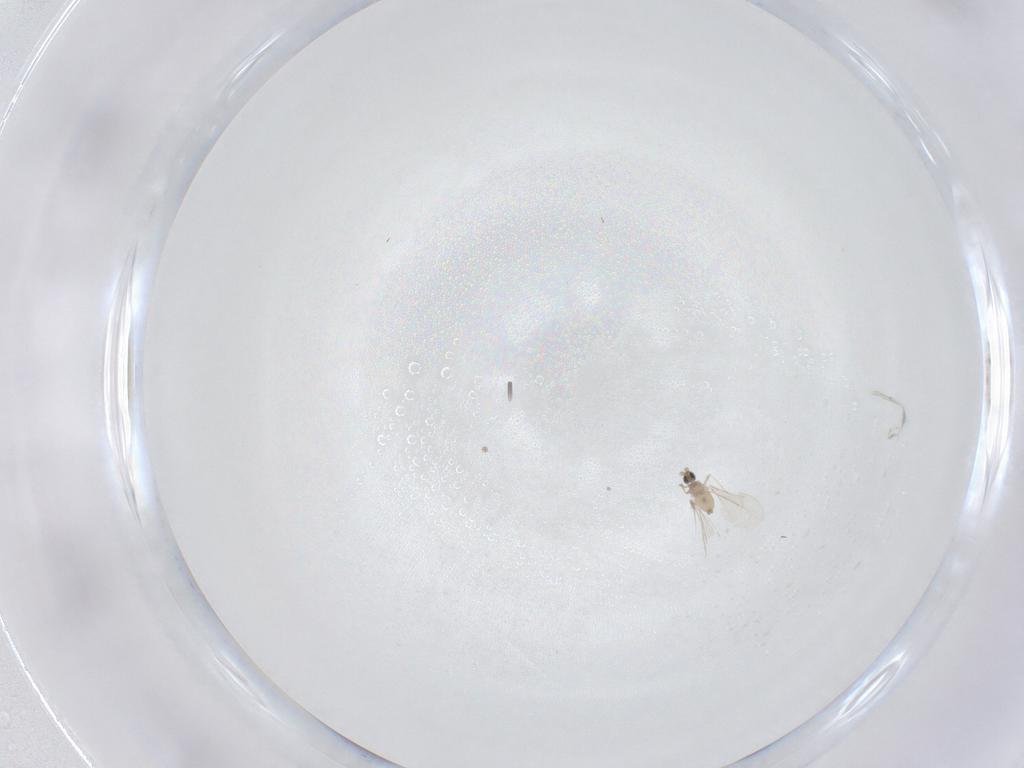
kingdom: Animalia
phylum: Arthropoda
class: Insecta
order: Diptera
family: Cecidomyiidae
